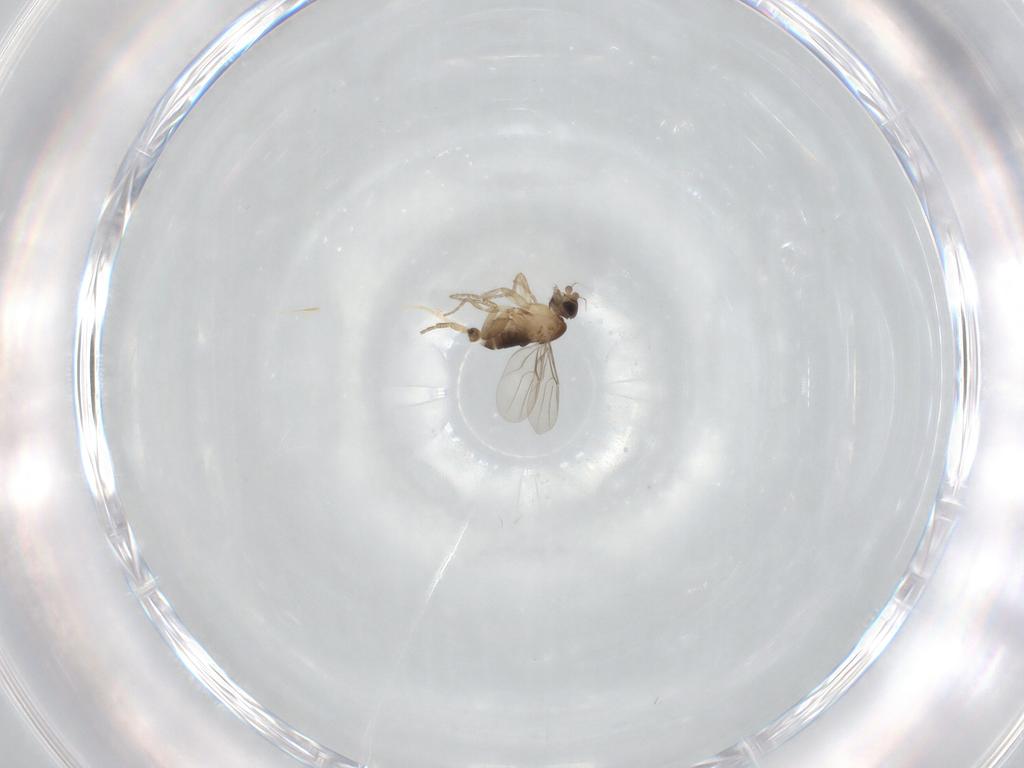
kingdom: Animalia
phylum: Arthropoda
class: Insecta
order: Diptera
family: Phoridae
